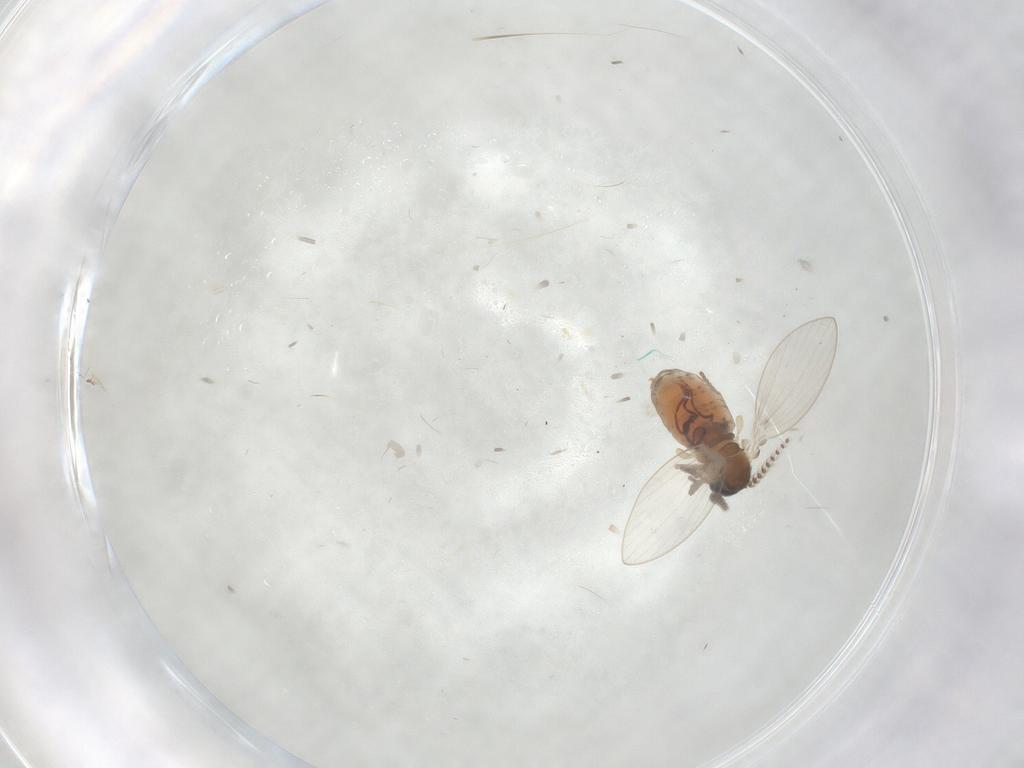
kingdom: Animalia
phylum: Arthropoda
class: Insecta
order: Diptera
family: Psychodidae
